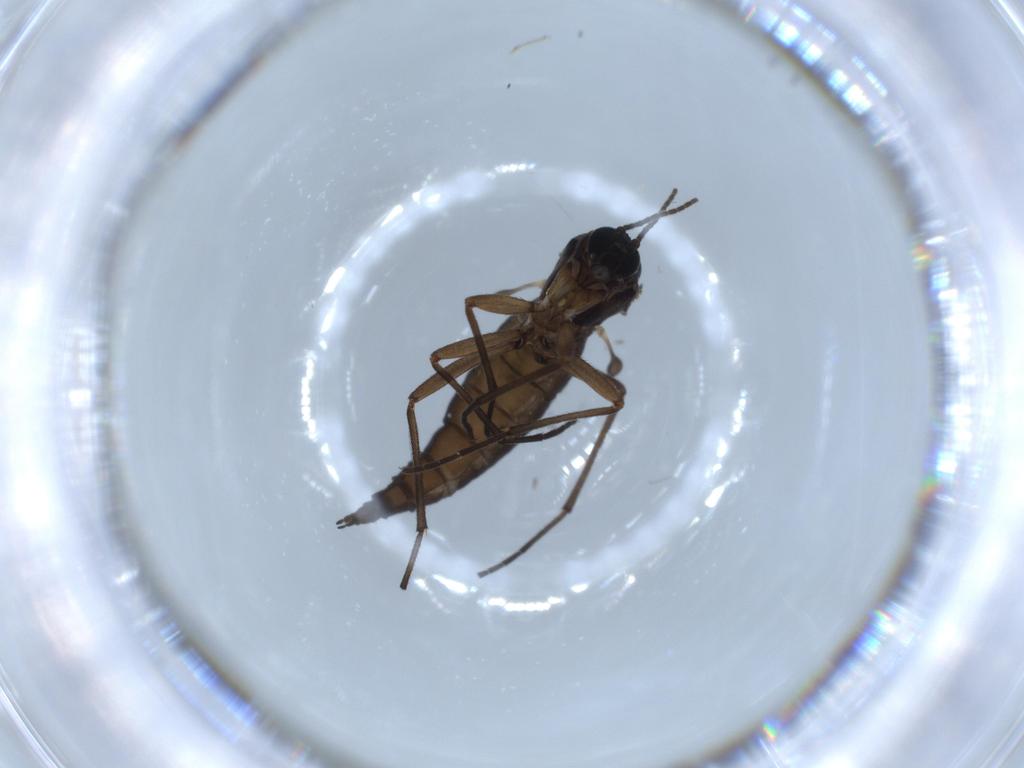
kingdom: Animalia
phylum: Arthropoda
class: Insecta
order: Diptera
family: Sciaridae
